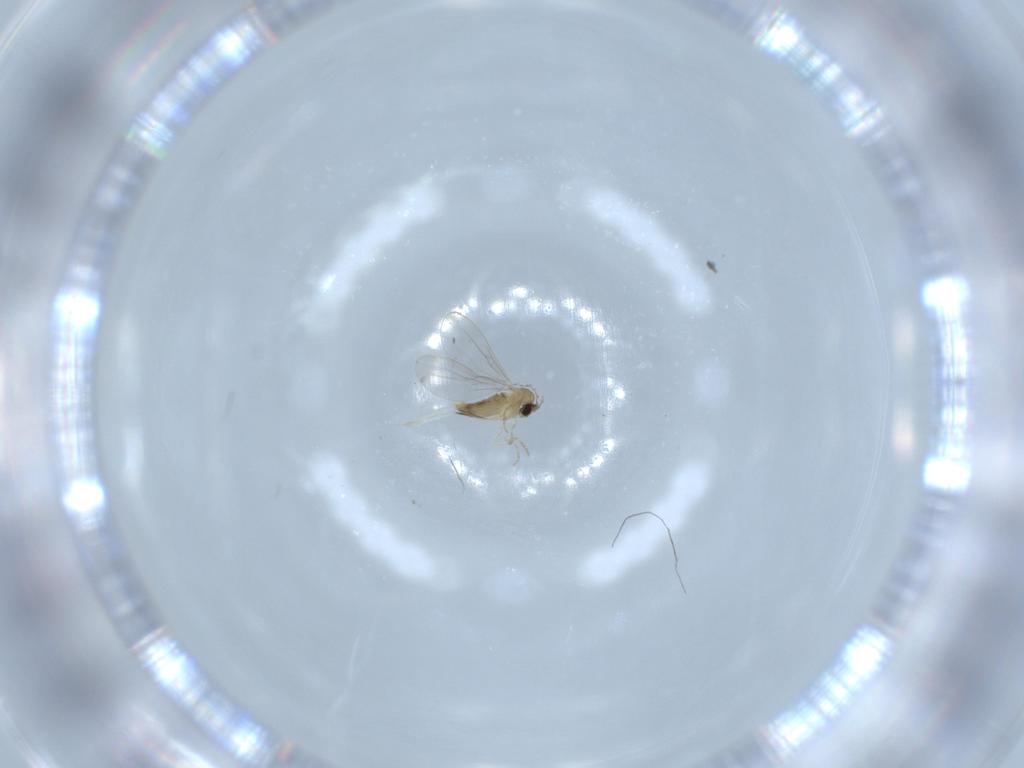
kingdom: Animalia
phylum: Arthropoda
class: Insecta
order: Diptera
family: Cecidomyiidae
